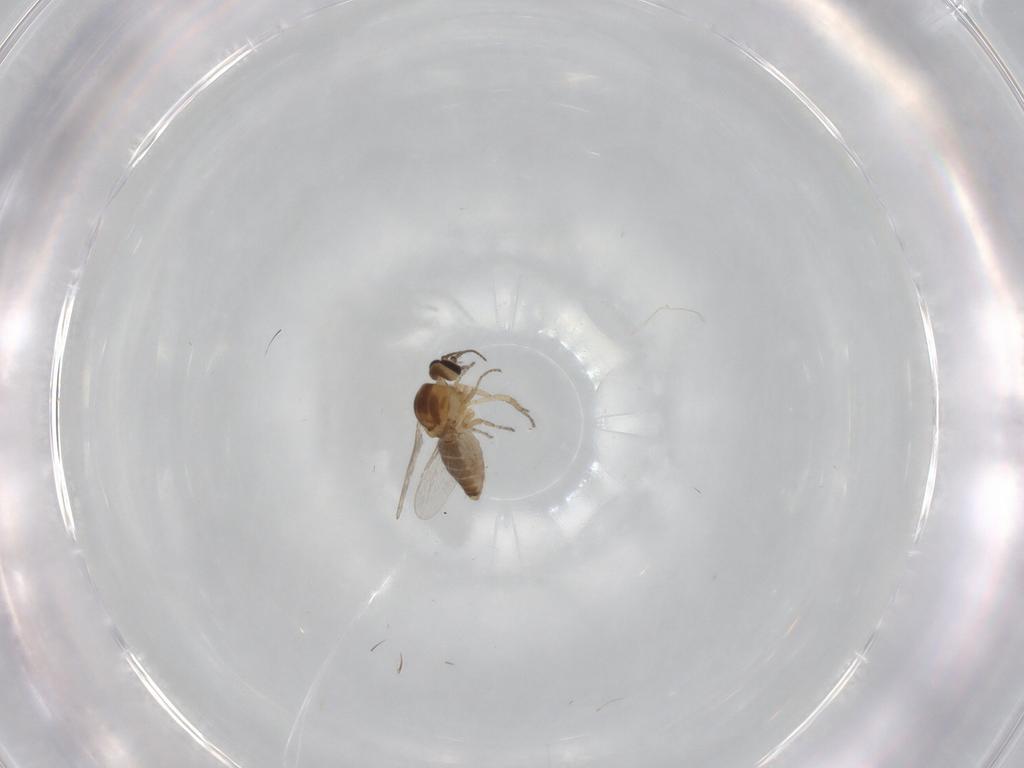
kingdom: Animalia
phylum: Arthropoda
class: Insecta
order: Diptera
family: Ceratopogonidae
